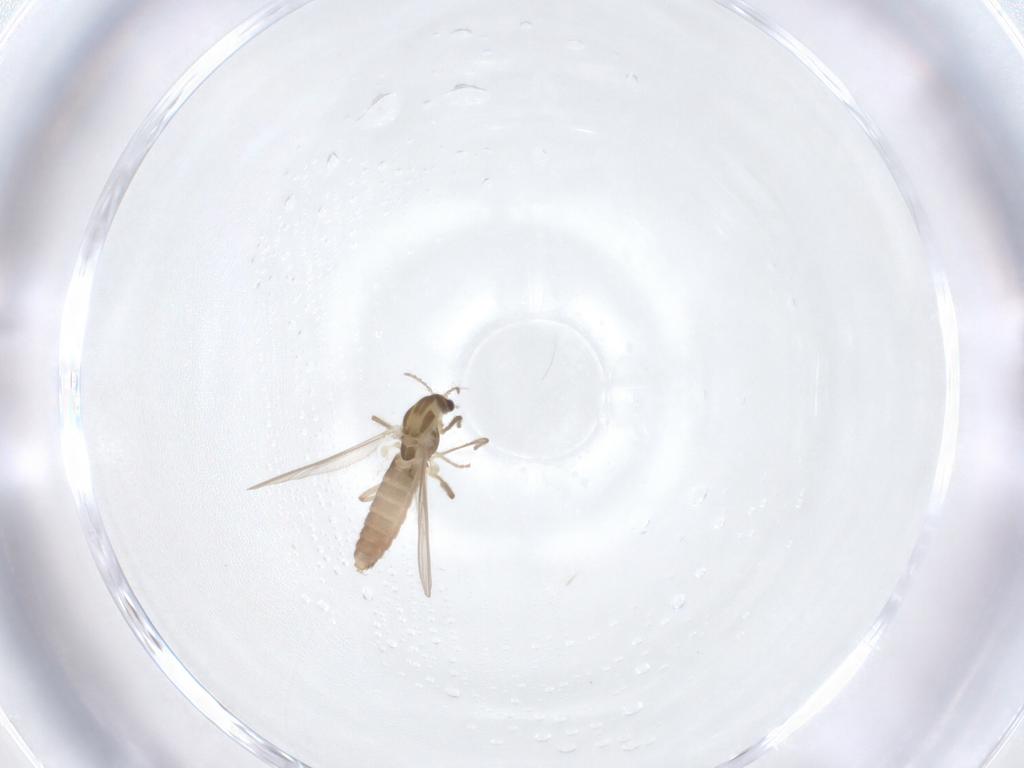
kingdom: Animalia
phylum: Arthropoda
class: Insecta
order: Diptera
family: Chironomidae
